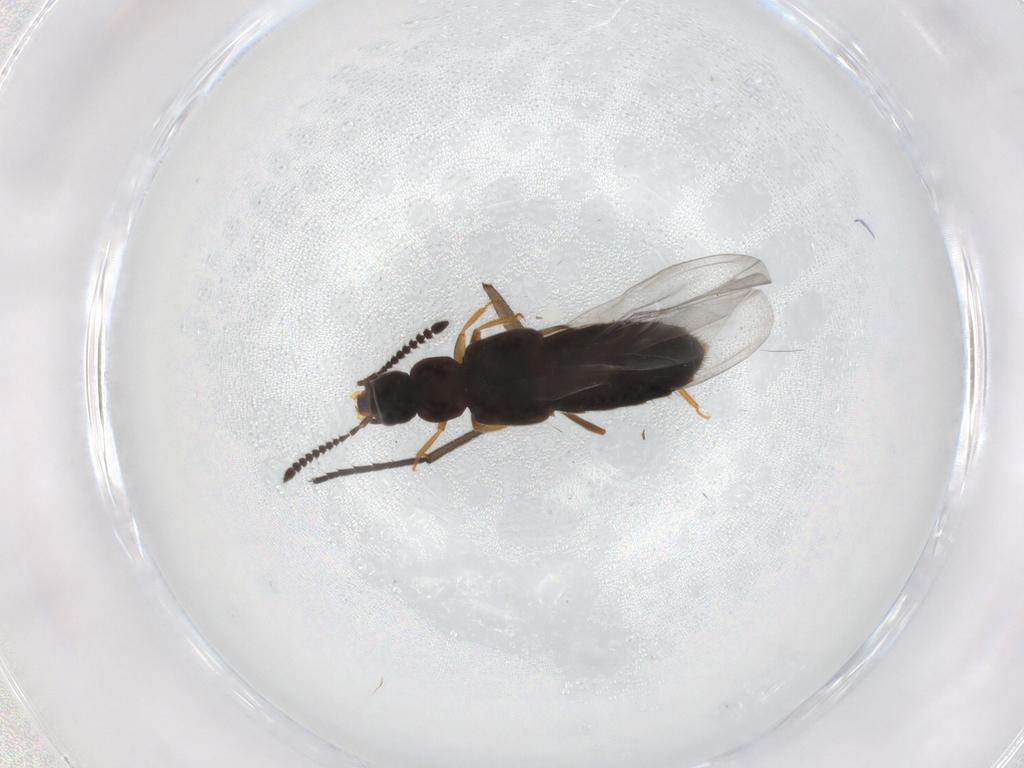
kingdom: Animalia
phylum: Arthropoda
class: Insecta
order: Coleoptera
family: Staphylinidae
